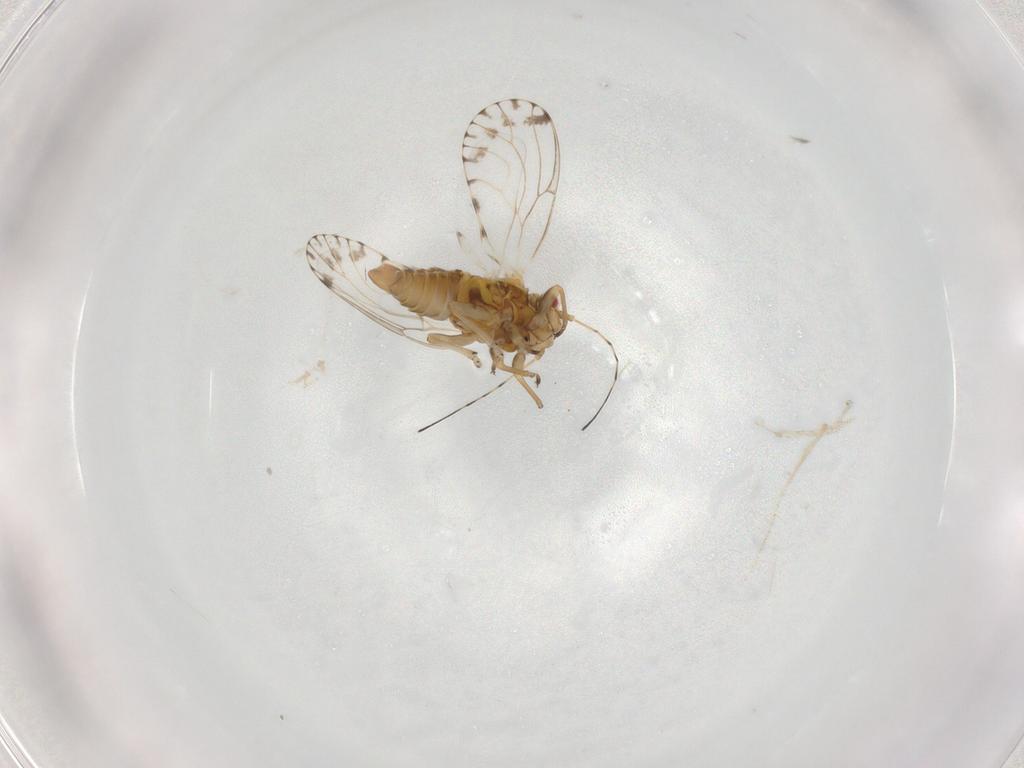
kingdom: Animalia
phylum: Arthropoda
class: Insecta
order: Hemiptera
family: Psyllidae
